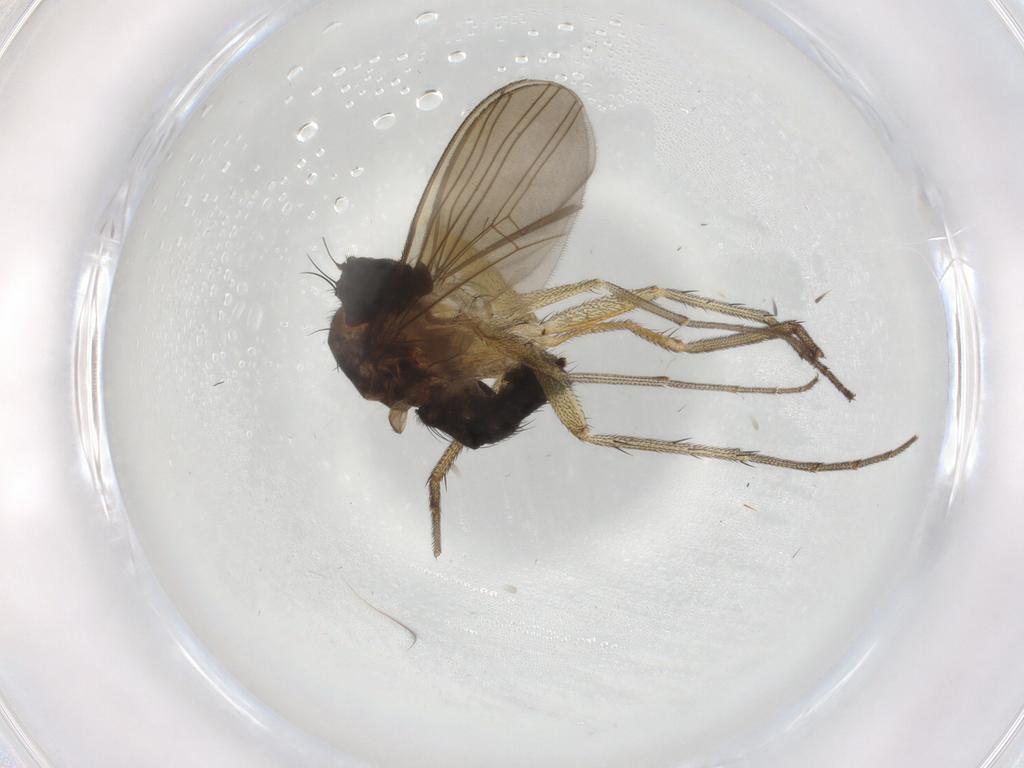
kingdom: Animalia
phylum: Arthropoda
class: Insecta
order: Diptera
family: Dolichopodidae
